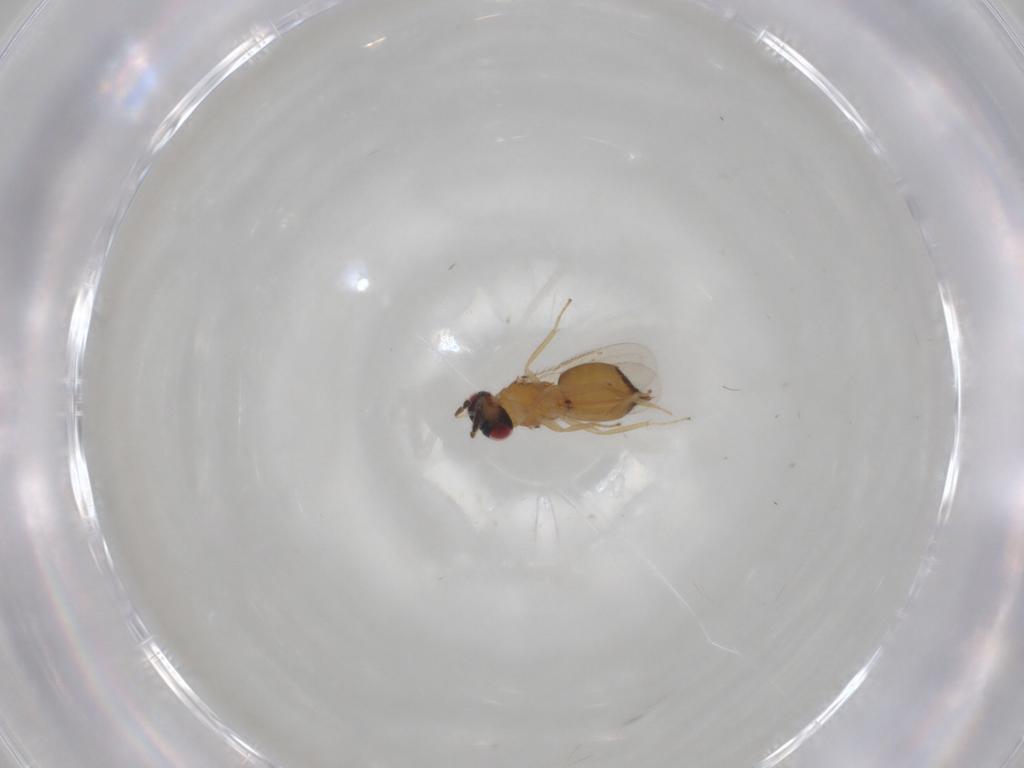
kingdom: Animalia
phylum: Arthropoda
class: Insecta
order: Hymenoptera
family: Eulophidae
